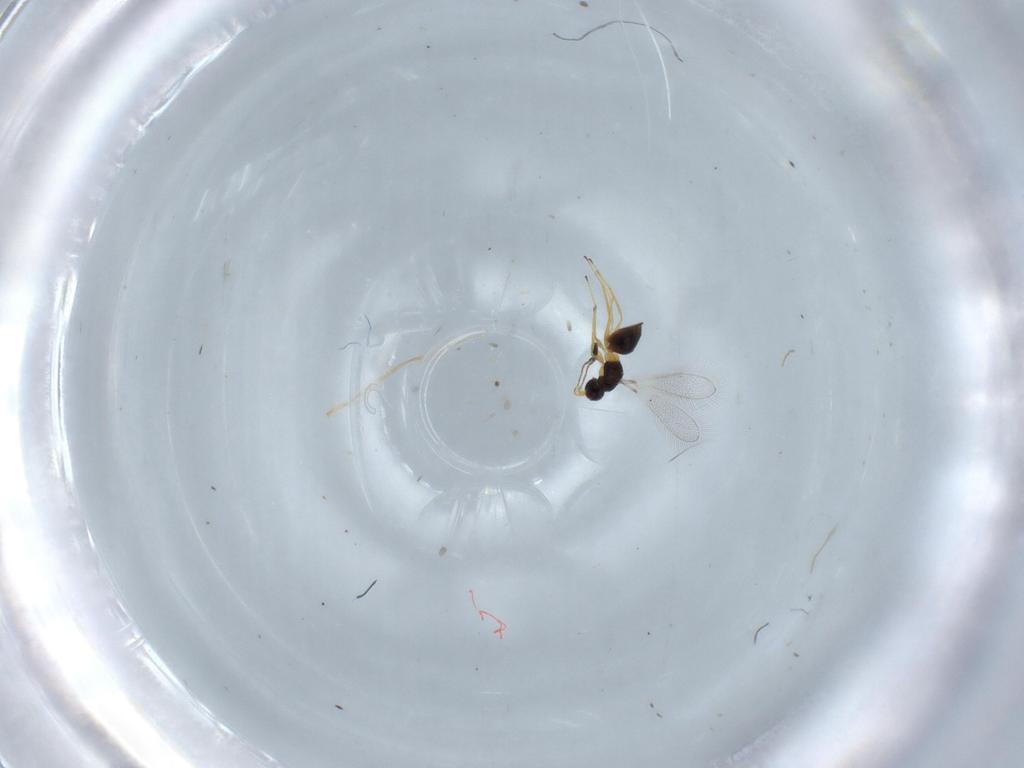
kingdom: Animalia
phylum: Arthropoda
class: Insecta
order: Hymenoptera
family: Mymaridae
